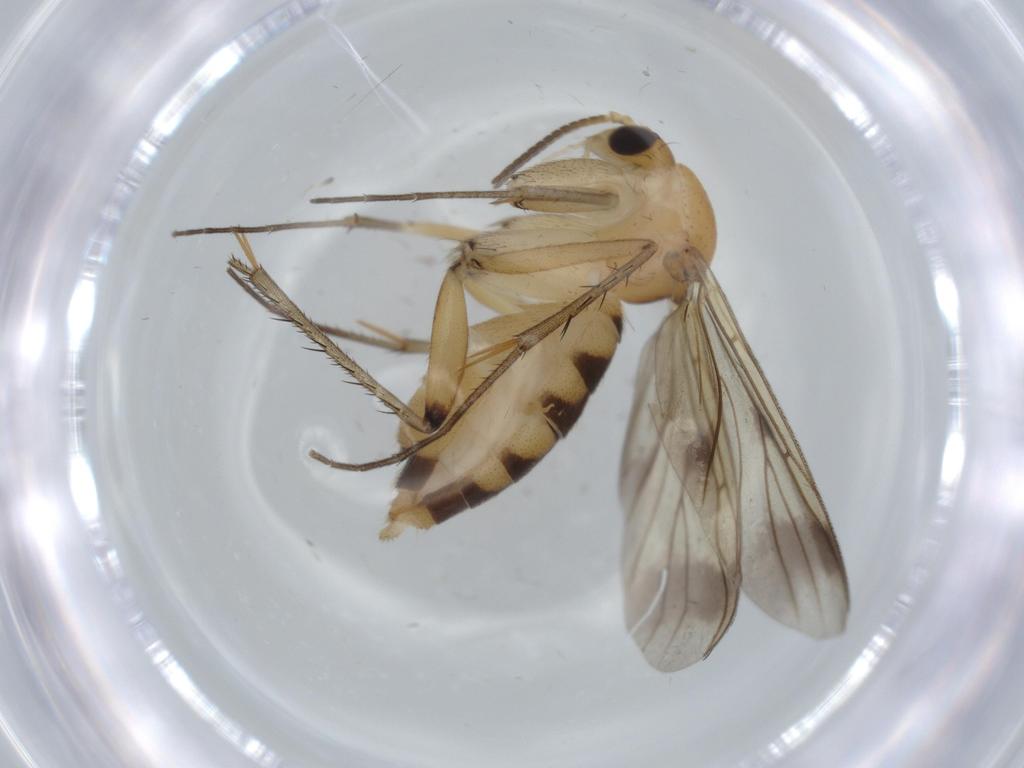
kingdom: Animalia
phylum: Arthropoda
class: Insecta
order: Diptera
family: Mycetophilidae
